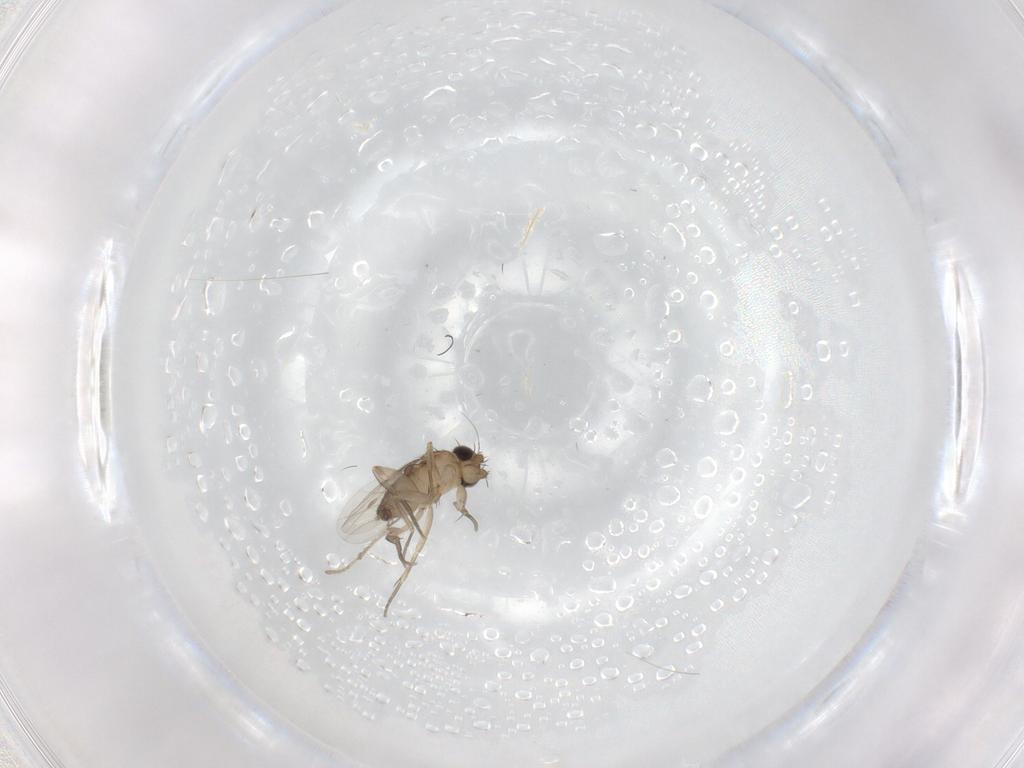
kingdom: Animalia
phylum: Arthropoda
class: Insecta
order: Diptera
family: Phoridae
